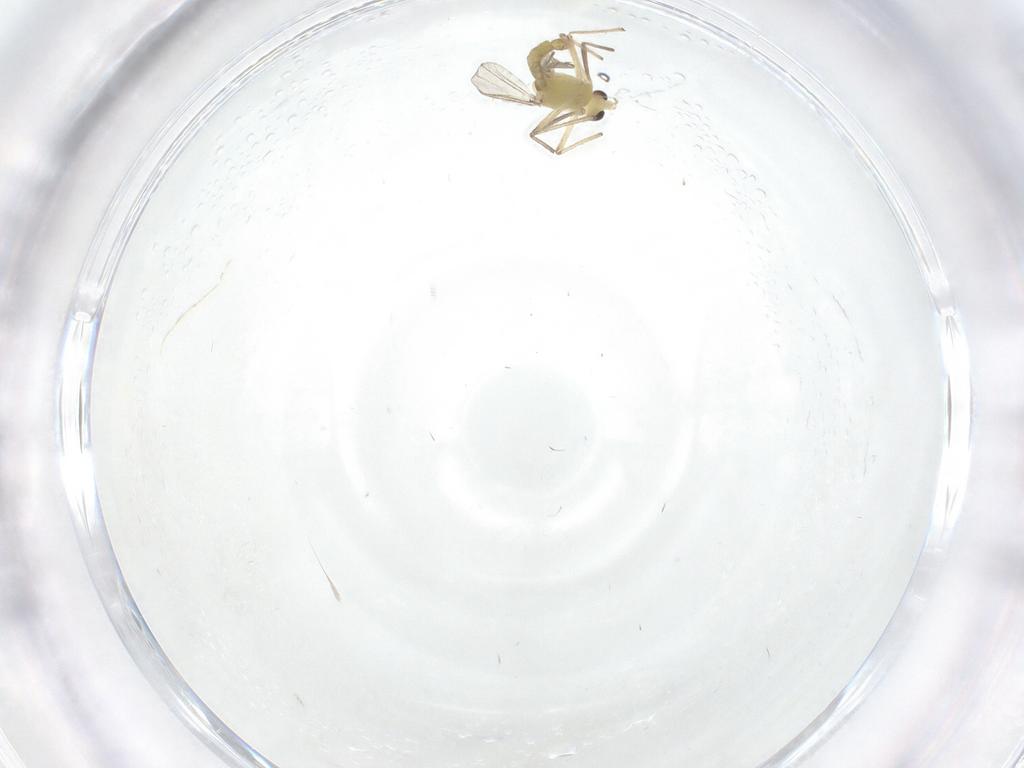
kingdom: Animalia
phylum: Arthropoda
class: Insecta
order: Diptera
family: Chironomidae
